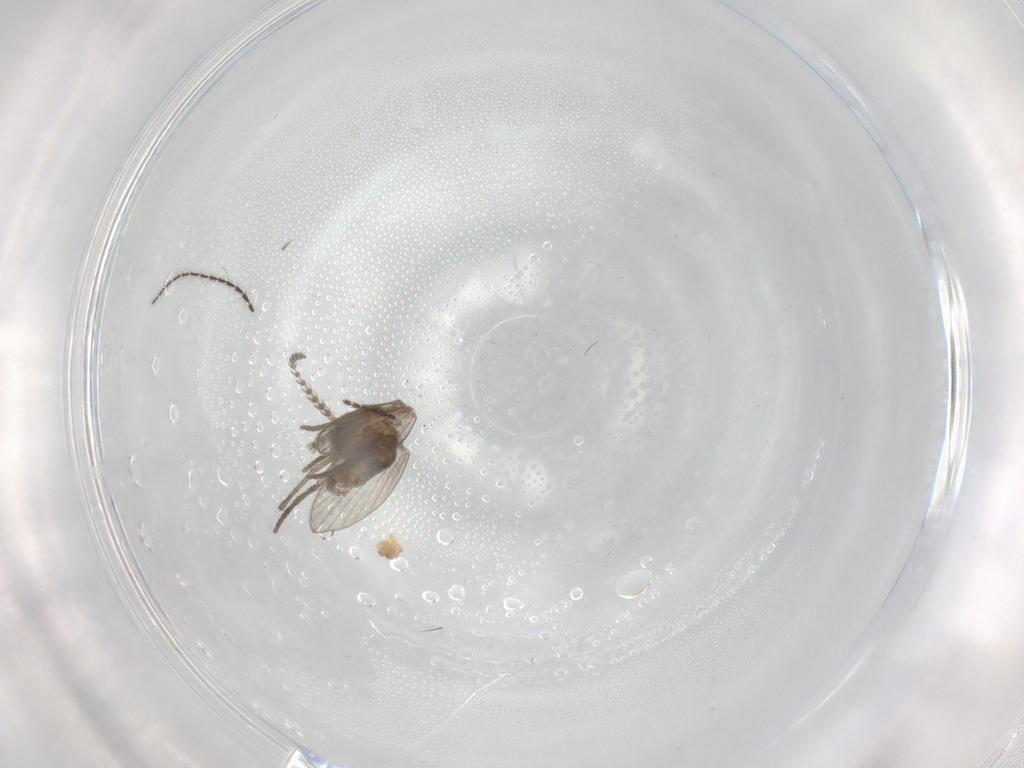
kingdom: Animalia
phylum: Arthropoda
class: Insecta
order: Diptera
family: Psychodidae
